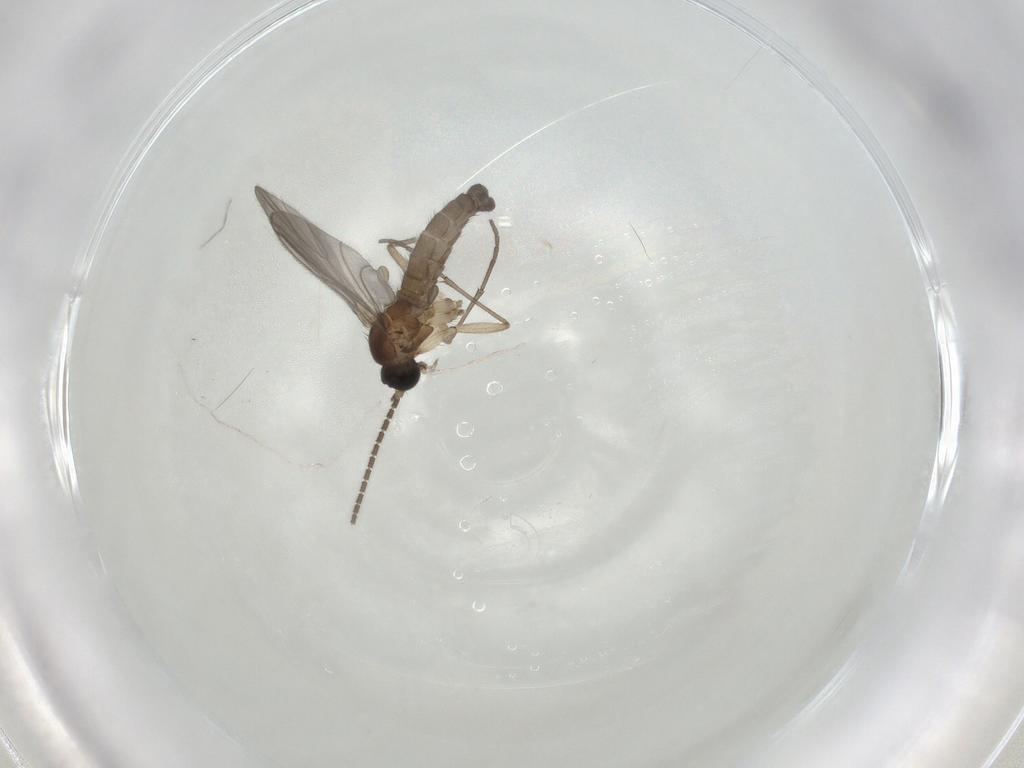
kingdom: Animalia
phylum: Arthropoda
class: Insecta
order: Diptera
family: Sciaridae
